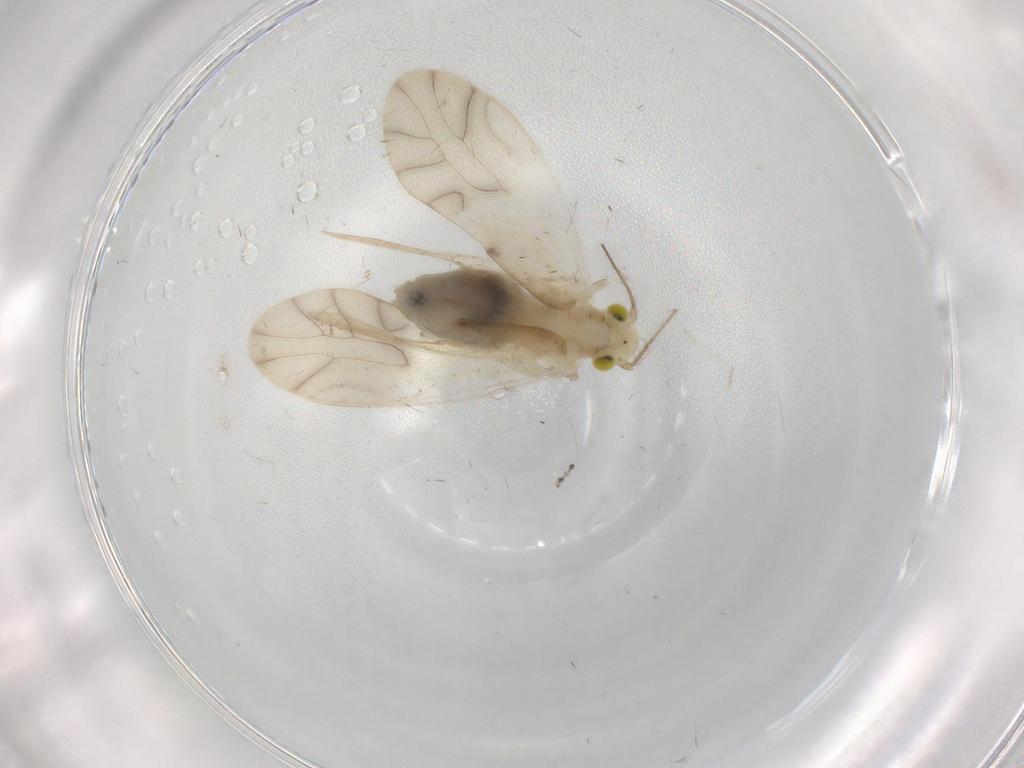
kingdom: Animalia
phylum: Arthropoda
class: Insecta
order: Psocodea
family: Caeciliusidae
